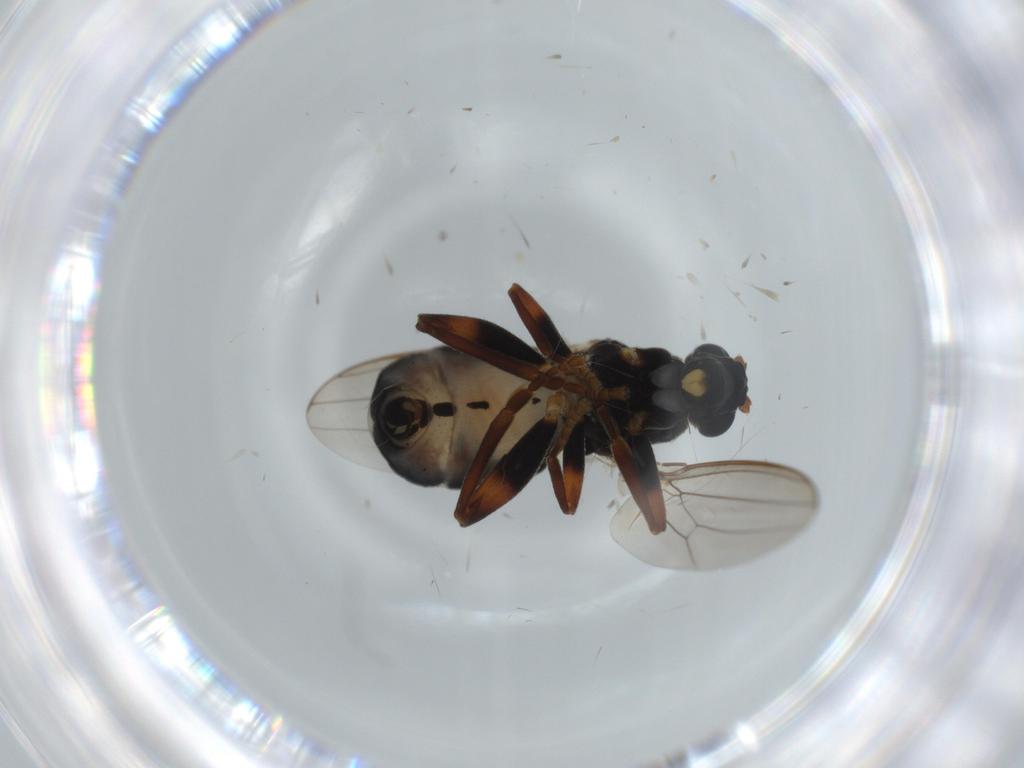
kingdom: Animalia
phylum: Arthropoda
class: Insecta
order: Diptera
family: Sphaeroceridae
